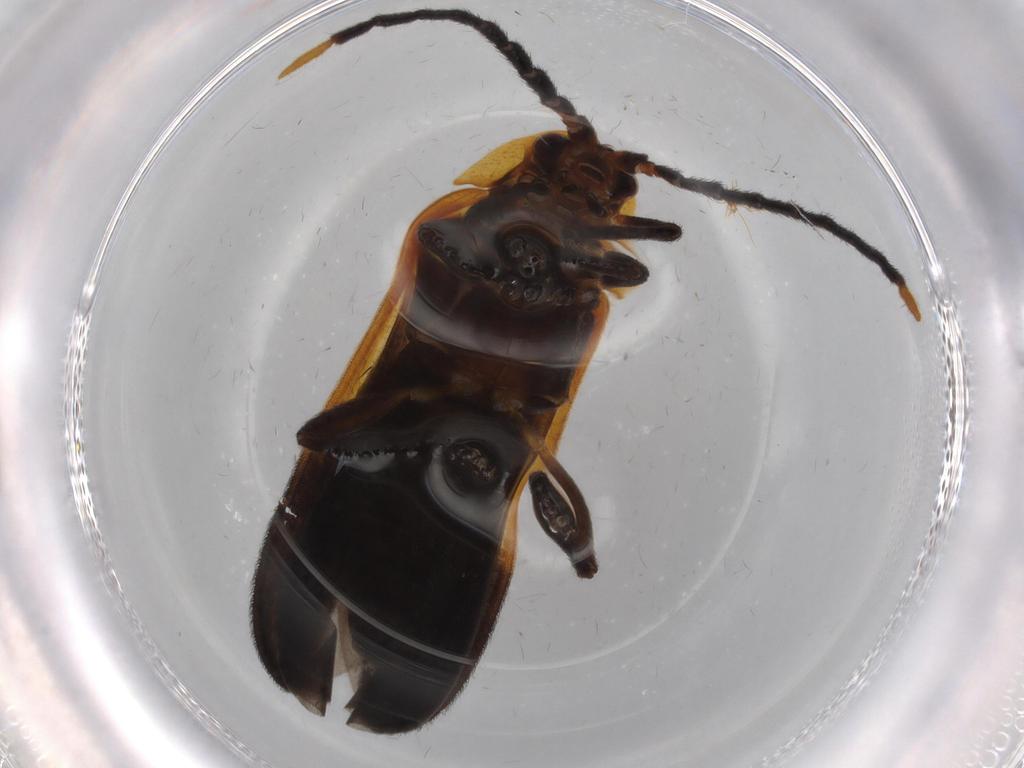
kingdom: Animalia
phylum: Arthropoda
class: Insecta
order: Coleoptera
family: Lycidae
